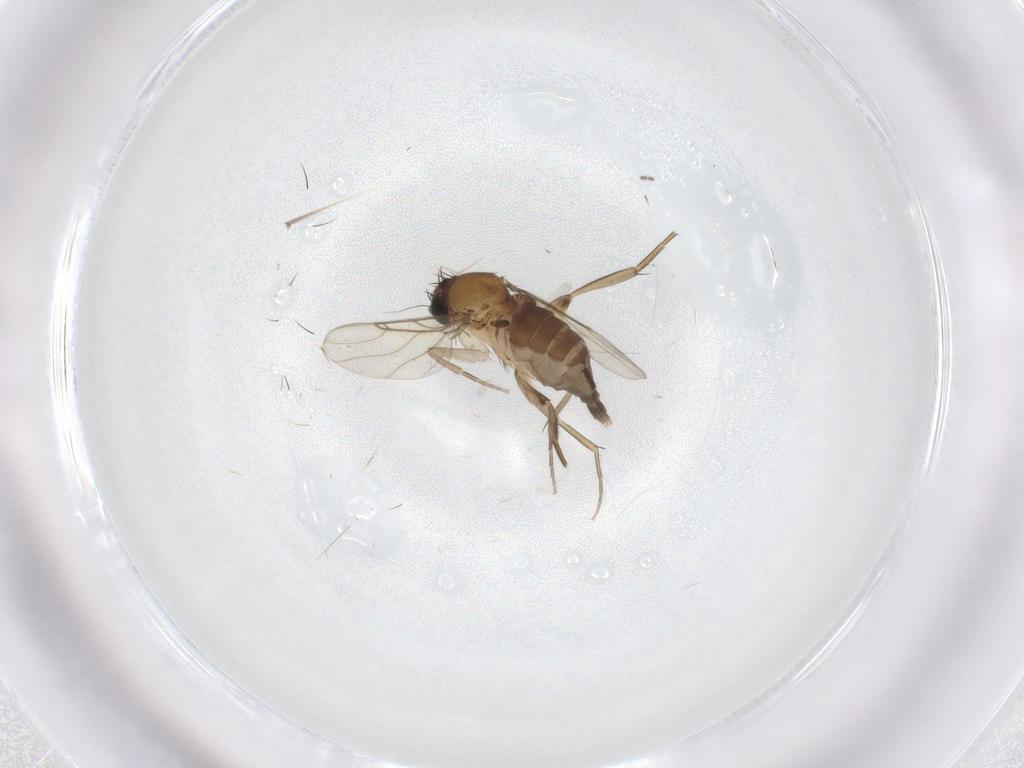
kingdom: Animalia
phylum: Arthropoda
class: Insecta
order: Diptera
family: Phoridae
